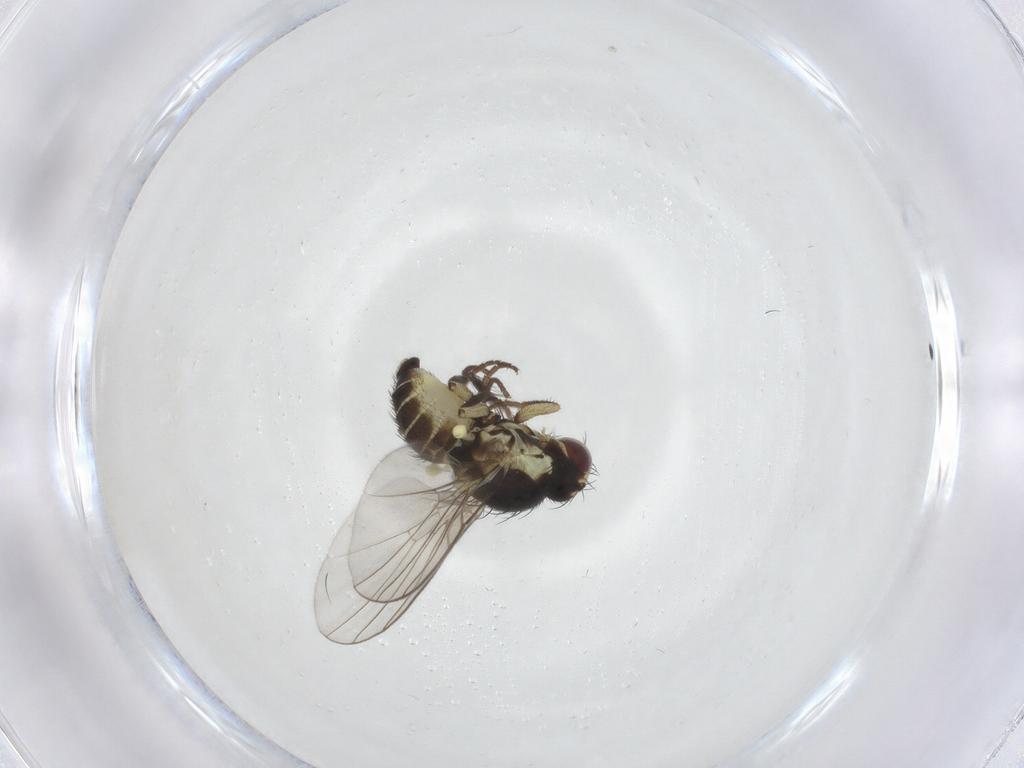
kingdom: Animalia
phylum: Arthropoda
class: Insecta
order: Diptera
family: Agromyzidae
